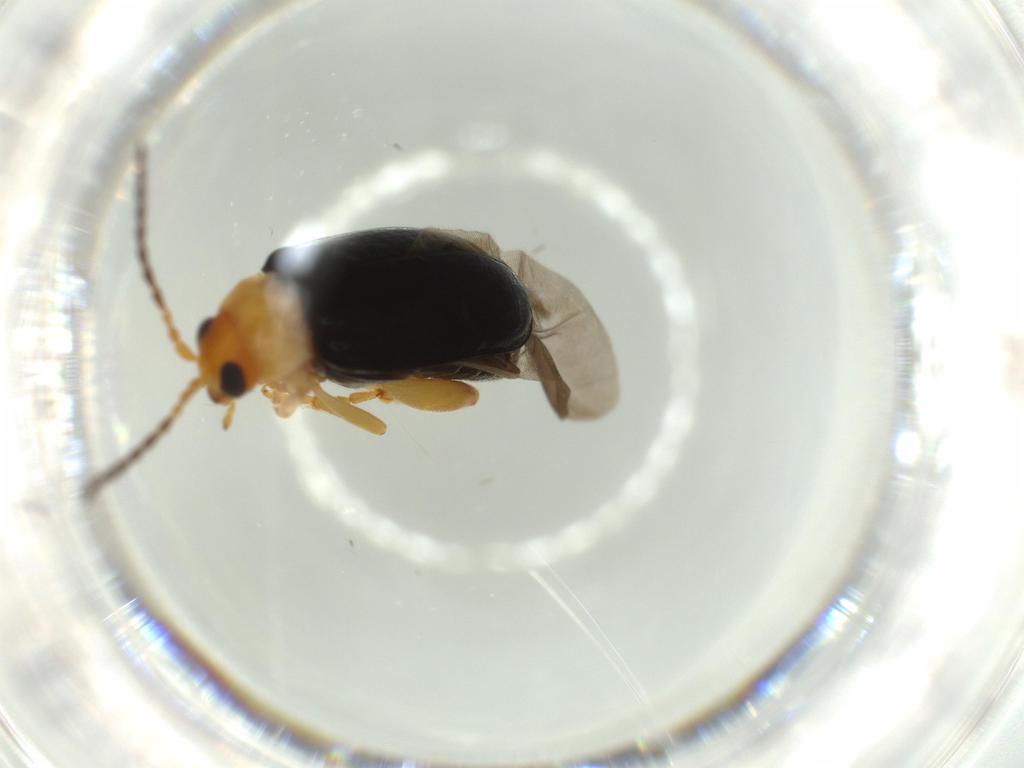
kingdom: Animalia
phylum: Arthropoda
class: Insecta
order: Coleoptera
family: Chrysomelidae
